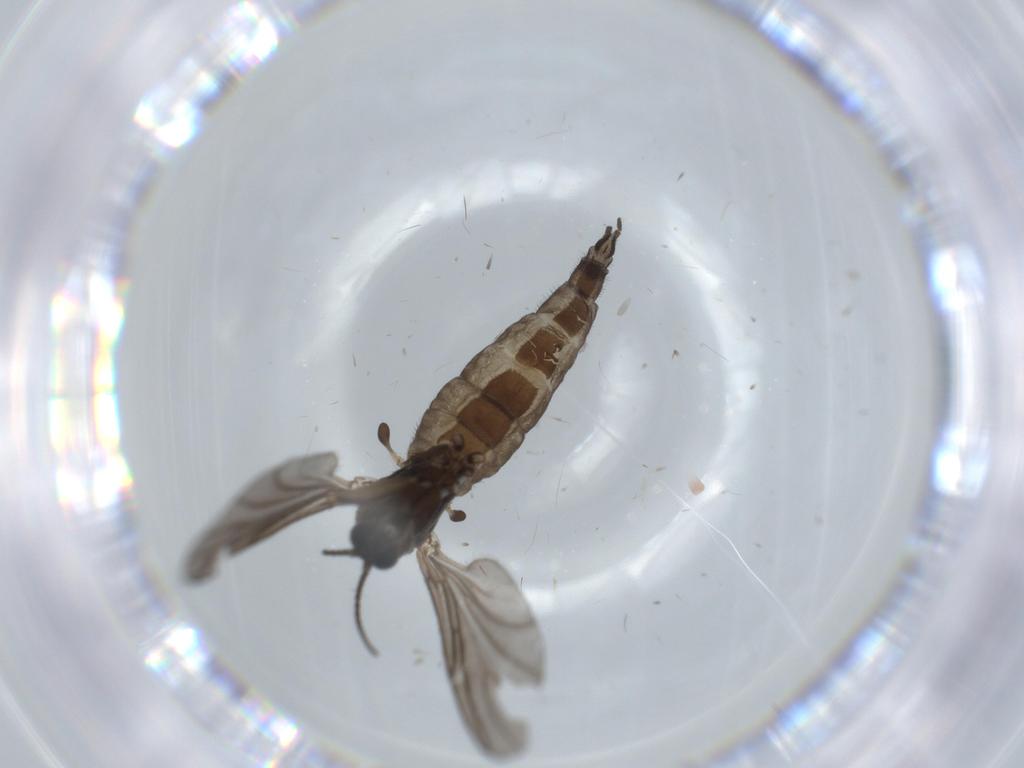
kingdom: Animalia
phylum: Arthropoda
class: Insecta
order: Diptera
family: Sciaridae
